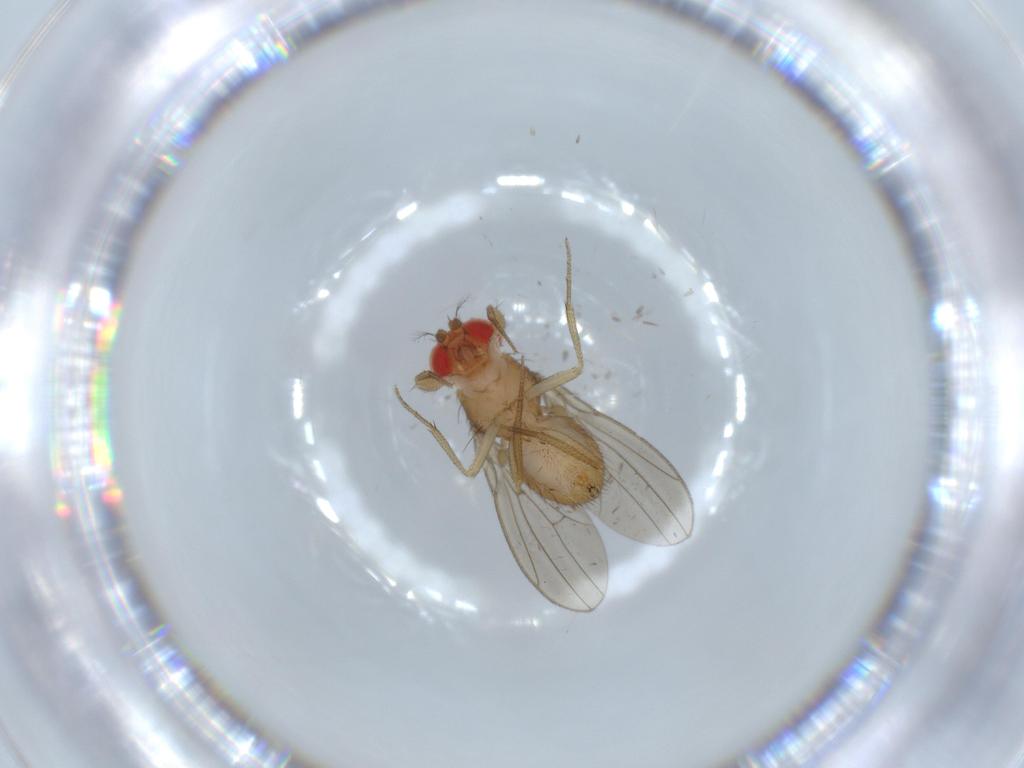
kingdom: Animalia
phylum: Arthropoda
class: Insecta
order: Diptera
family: Drosophilidae
